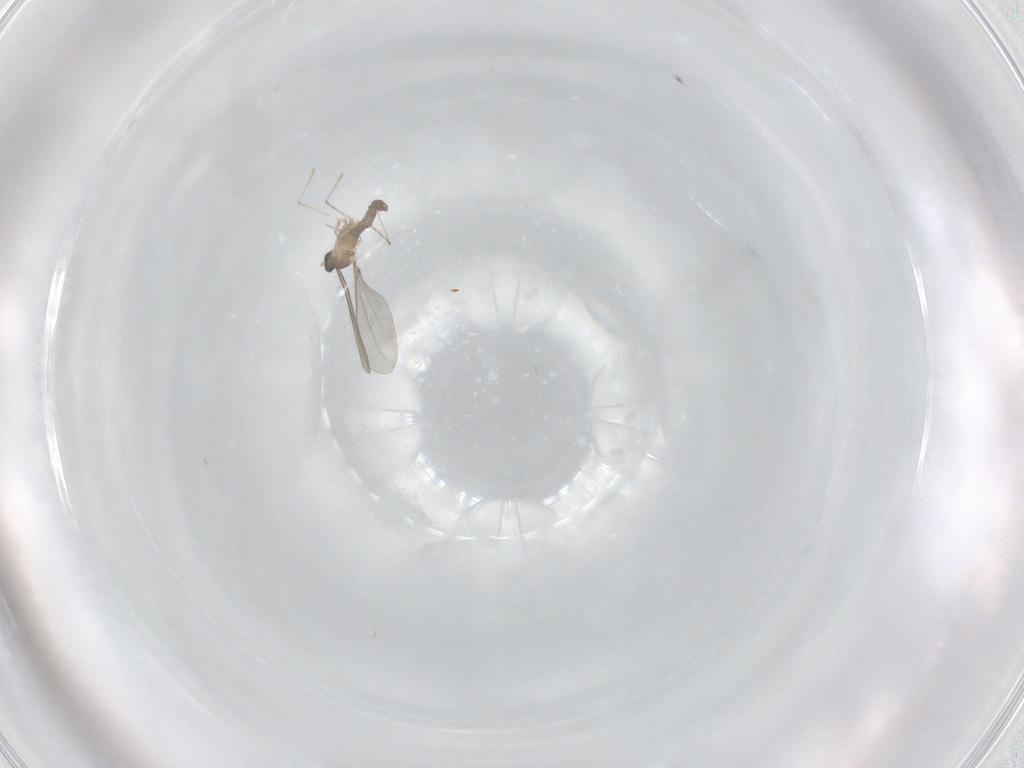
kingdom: Animalia
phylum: Arthropoda
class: Insecta
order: Diptera
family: Cecidomyiidae
